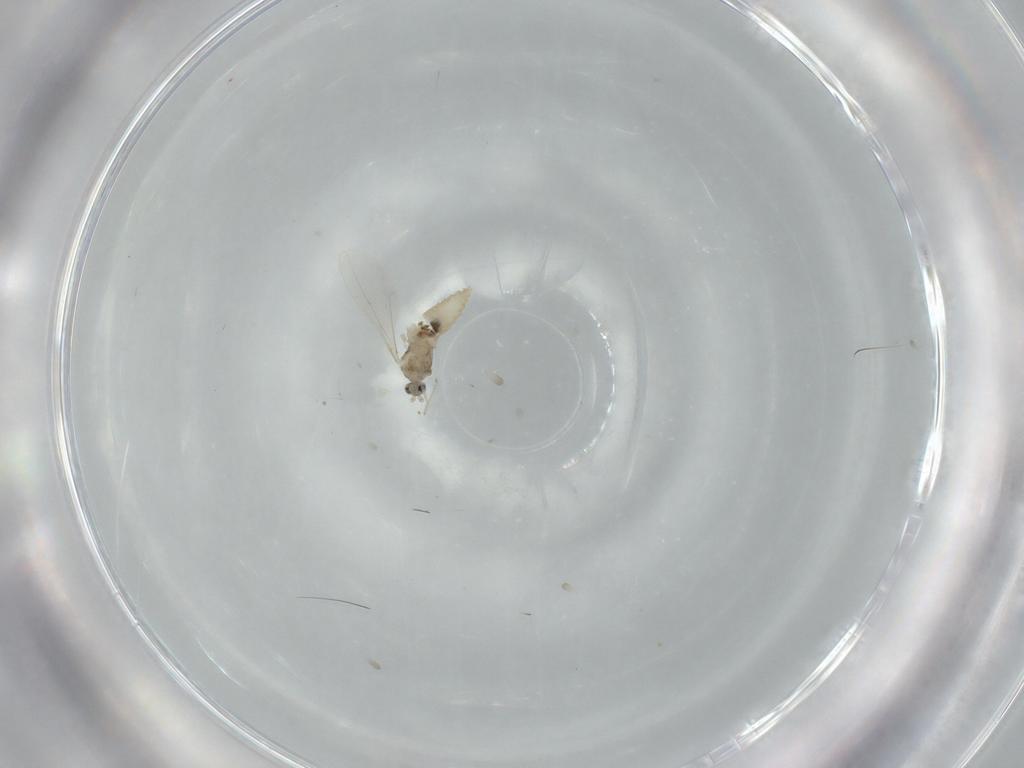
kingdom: Animalia
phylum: Arthropoda
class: Insecta
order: Diptera
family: Cecidomyiidae
